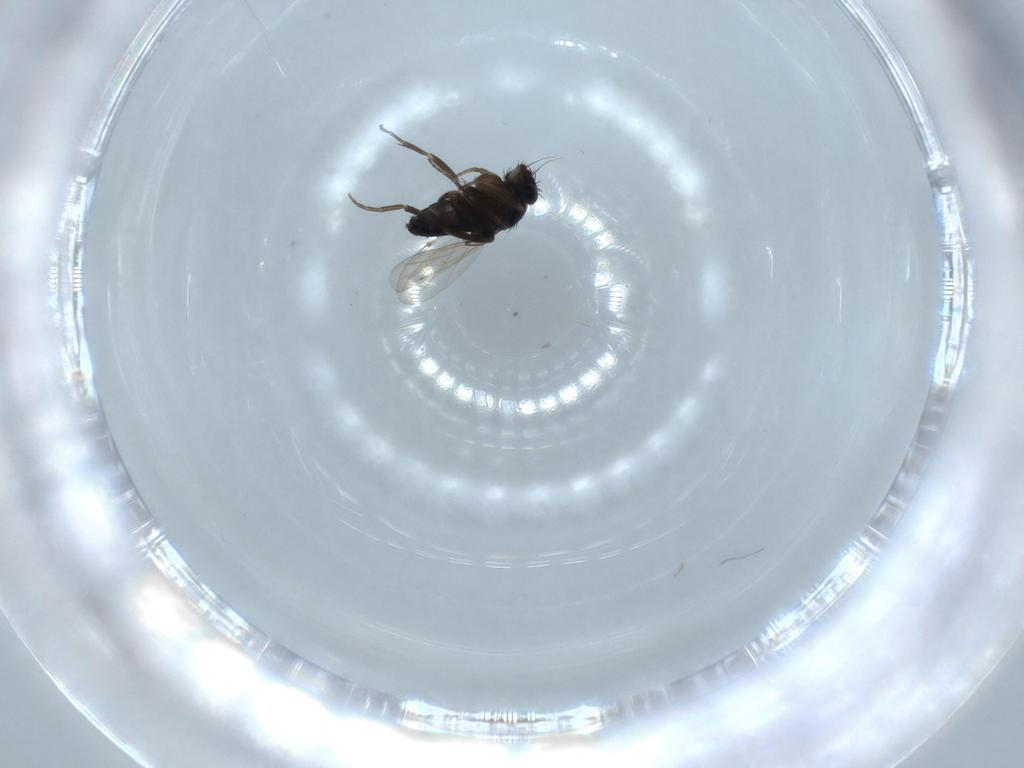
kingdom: Animalia
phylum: Arthropoda
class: Insecta
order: Diptera
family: Phoridae
